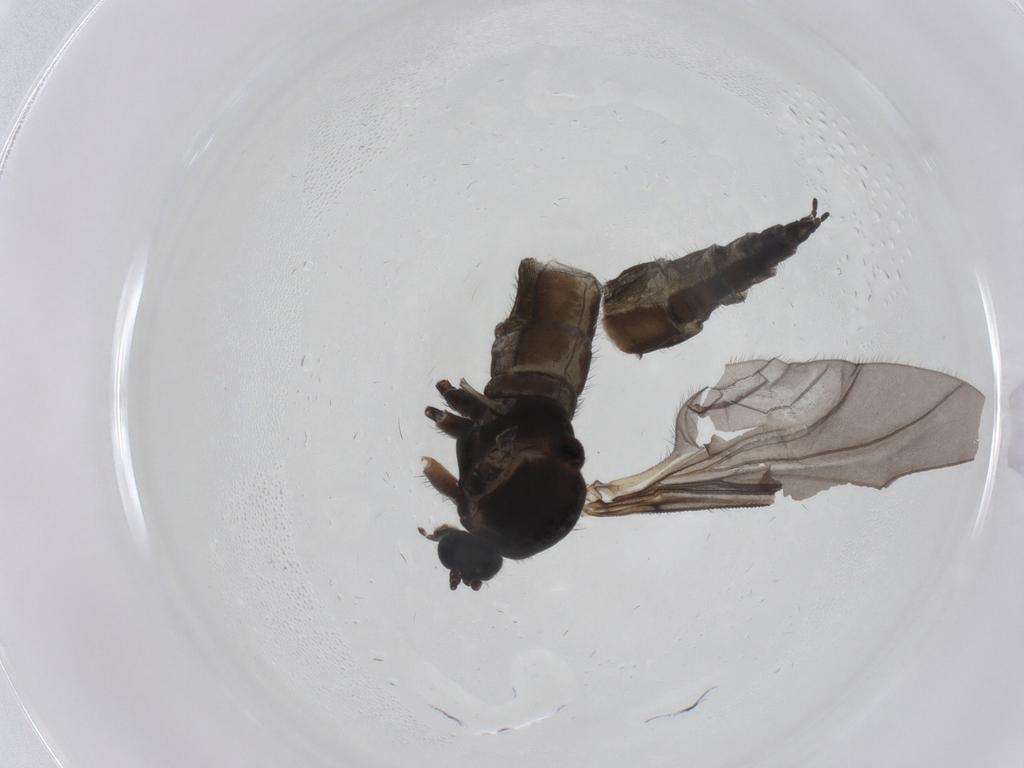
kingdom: Animalia
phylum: Arthropoda
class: Insecta
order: Diptera
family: Sciaridae
